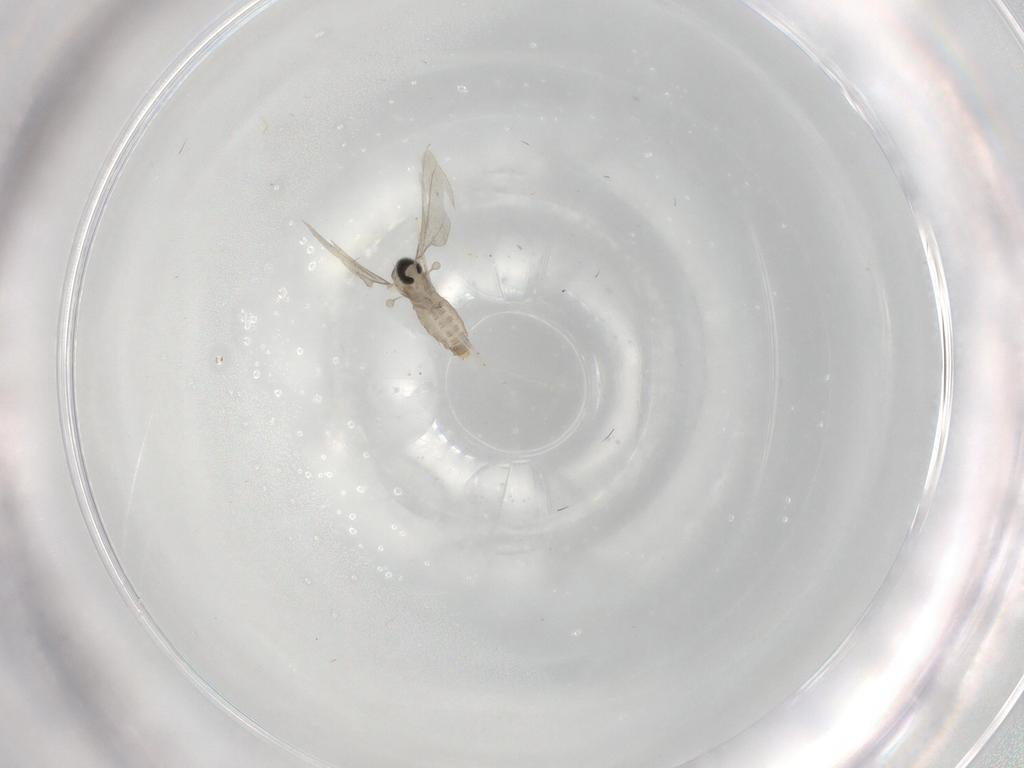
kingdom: Animalia
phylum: Arthropoda
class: Insecta
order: Diptera
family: Cecidomyiidae
